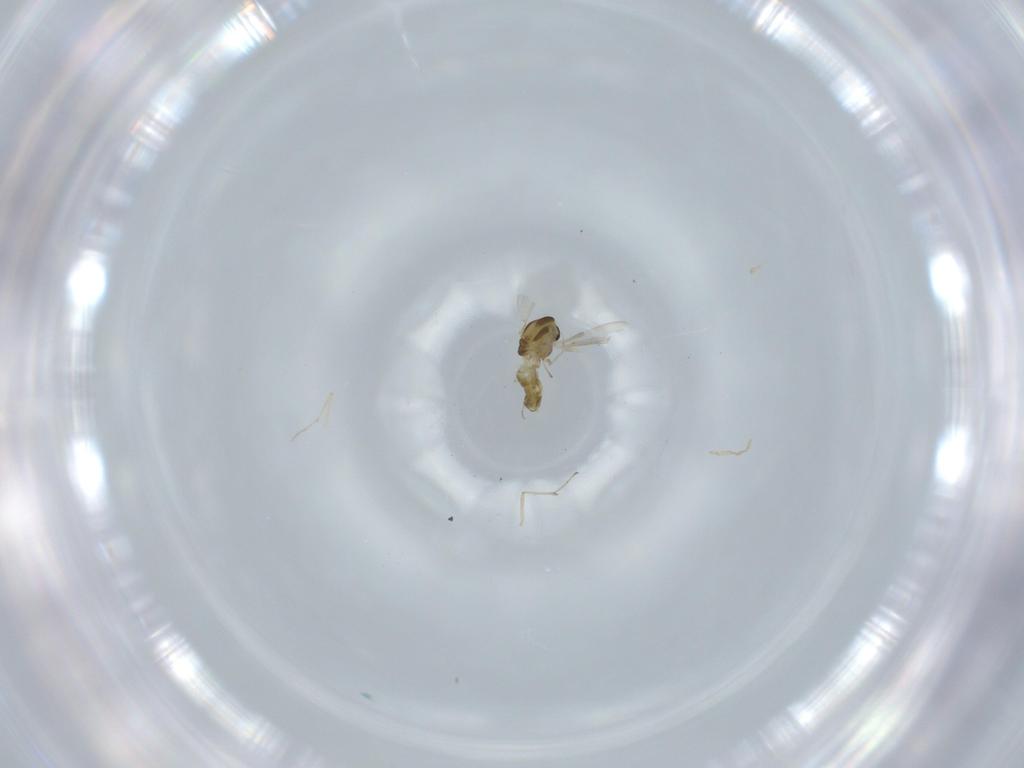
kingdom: Animalia
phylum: Arthropoda
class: Insecta
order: Diptera
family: Chironomidae
